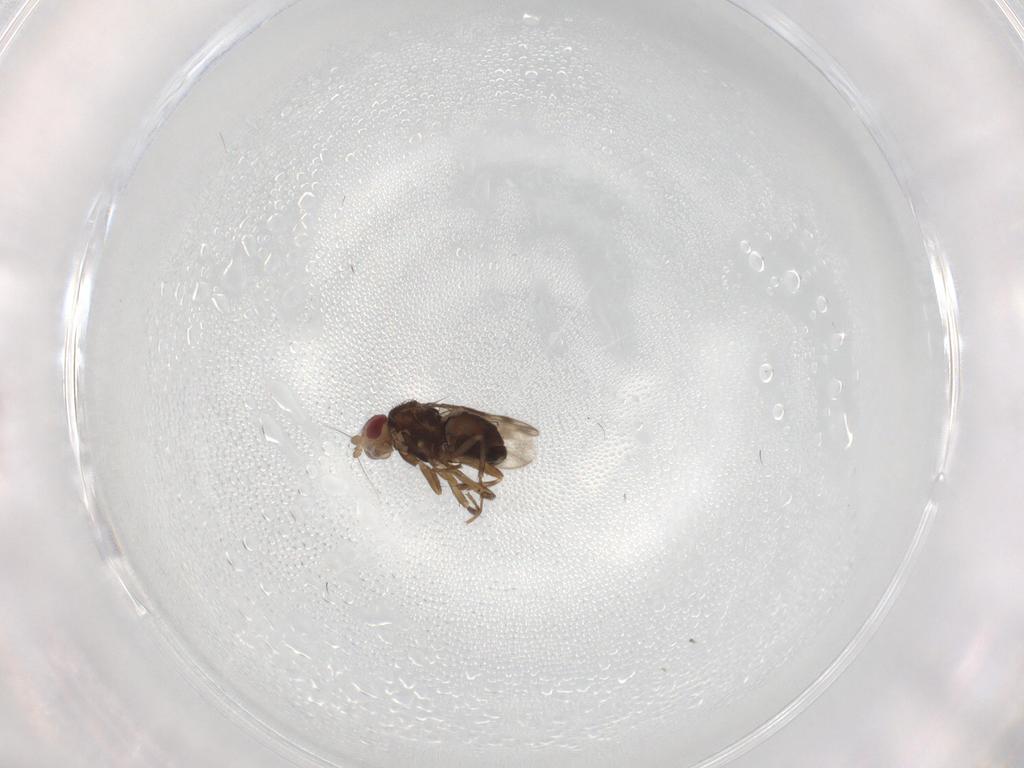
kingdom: Animalia
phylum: Arthropoda
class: Insecta
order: Diptera
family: Sphaeroceridae
